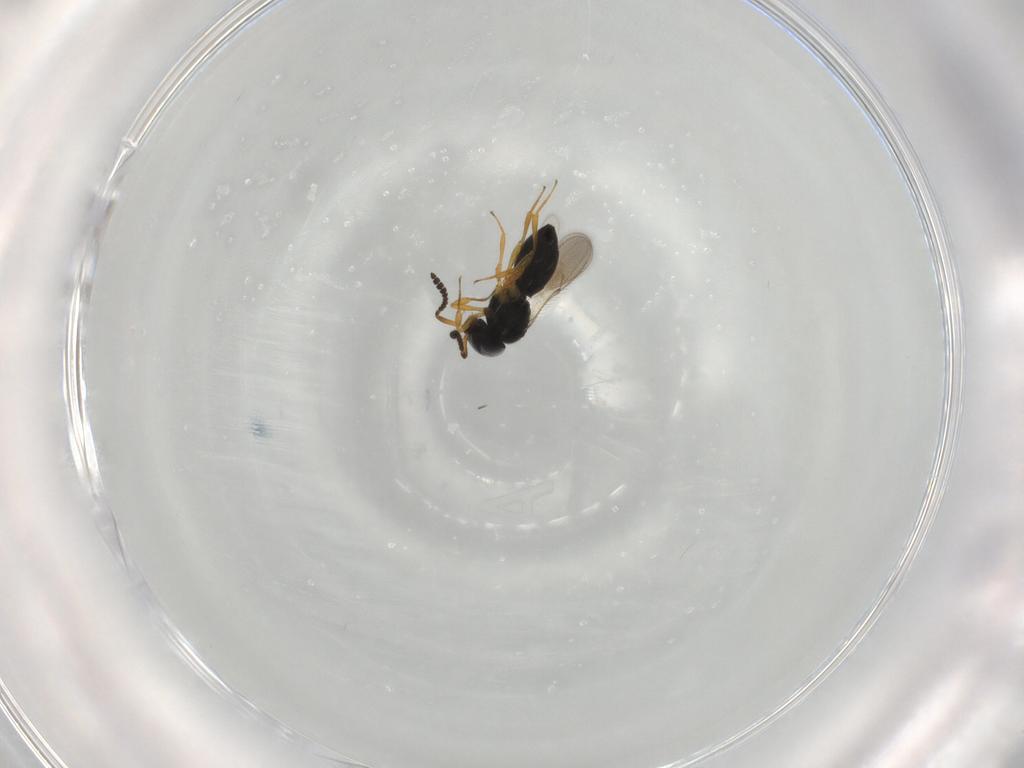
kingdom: Animalia
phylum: Arthropoda
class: Insecta
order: Hymenoptera
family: Scelionidae
